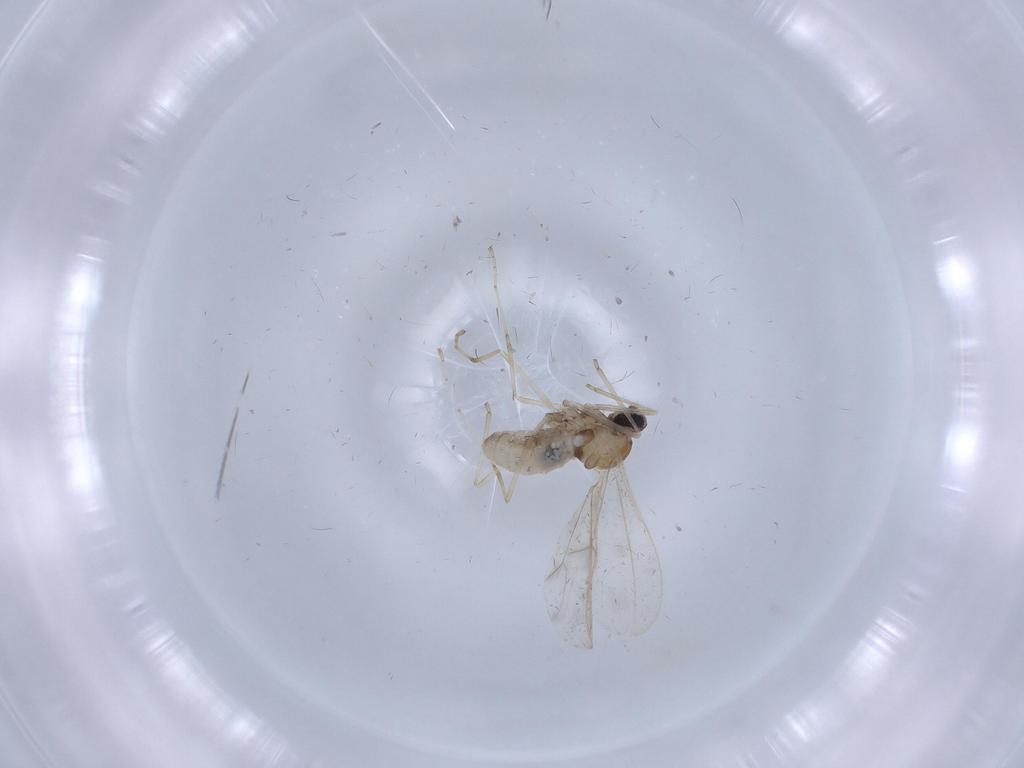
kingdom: Animalia
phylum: Arthropoda
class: Insecta
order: Diptera
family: Cecidomyiidae
